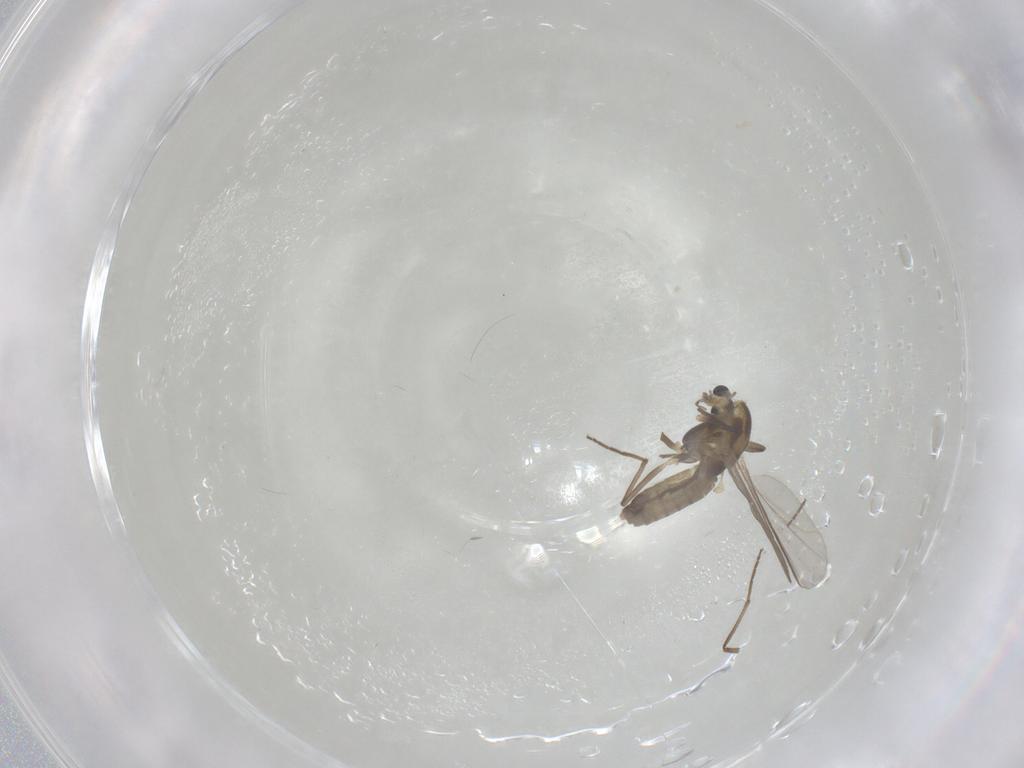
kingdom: Animalia
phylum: Arthropoda
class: Insecta
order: Diptera
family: Chironomidae
